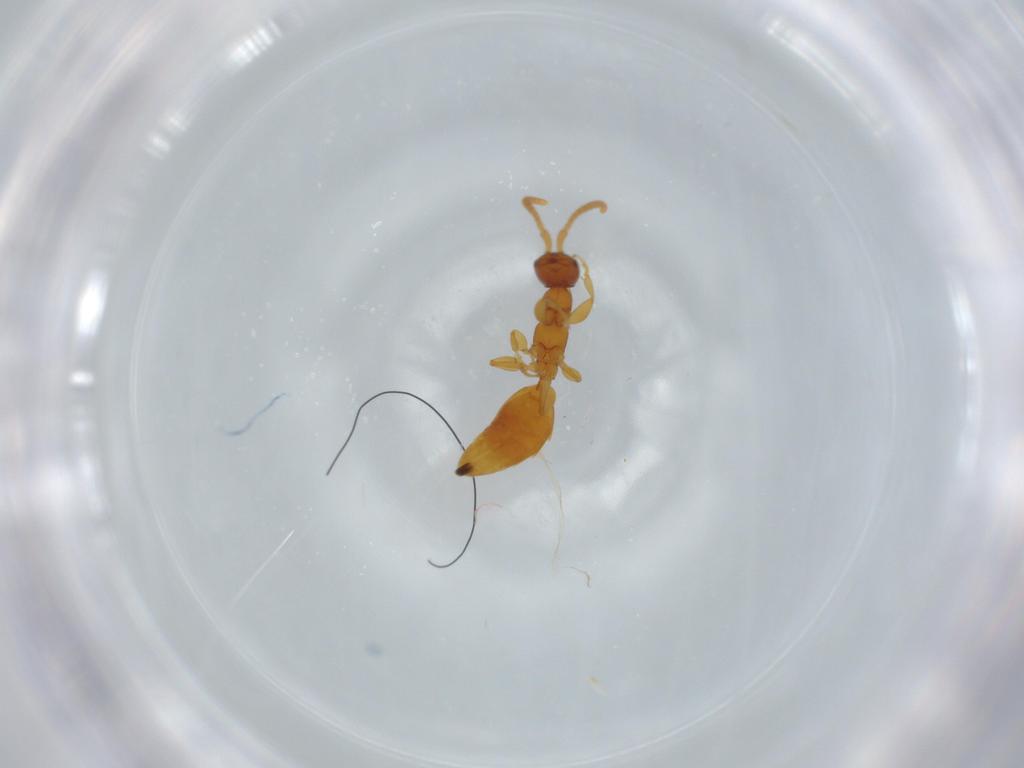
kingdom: Animalia
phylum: Arthropoda
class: Insecta
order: Hymenoptera
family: Bethylidae
